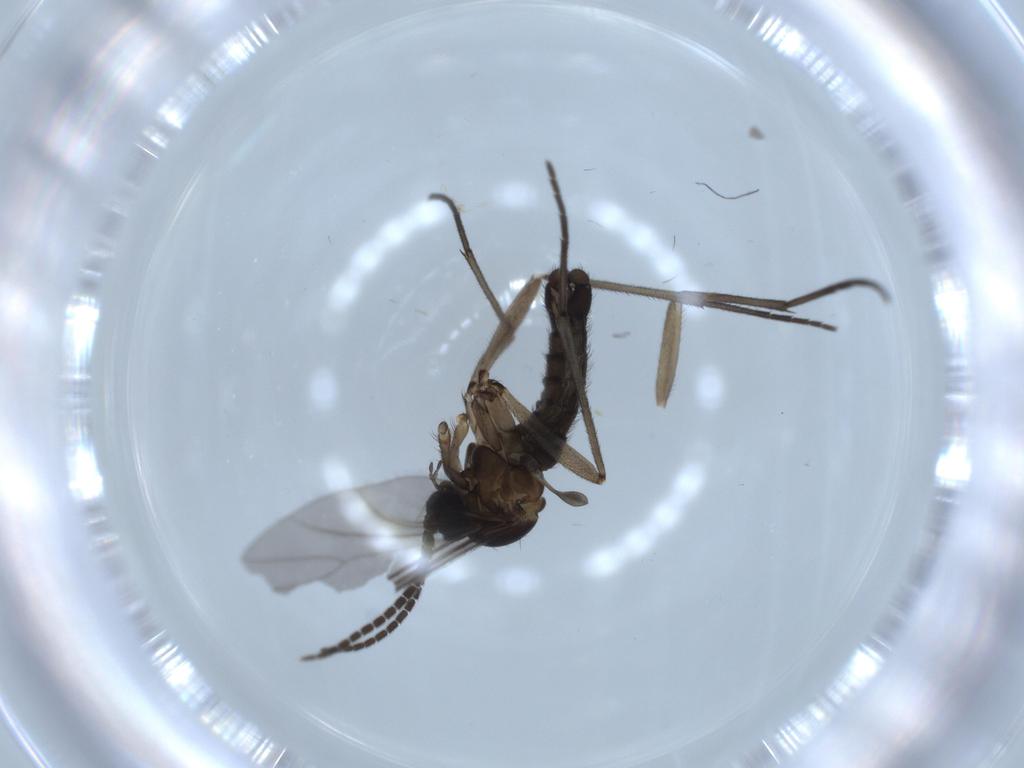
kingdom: Animalia
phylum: Arthropoda
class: Insecta
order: Diptera
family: Sciaridae
